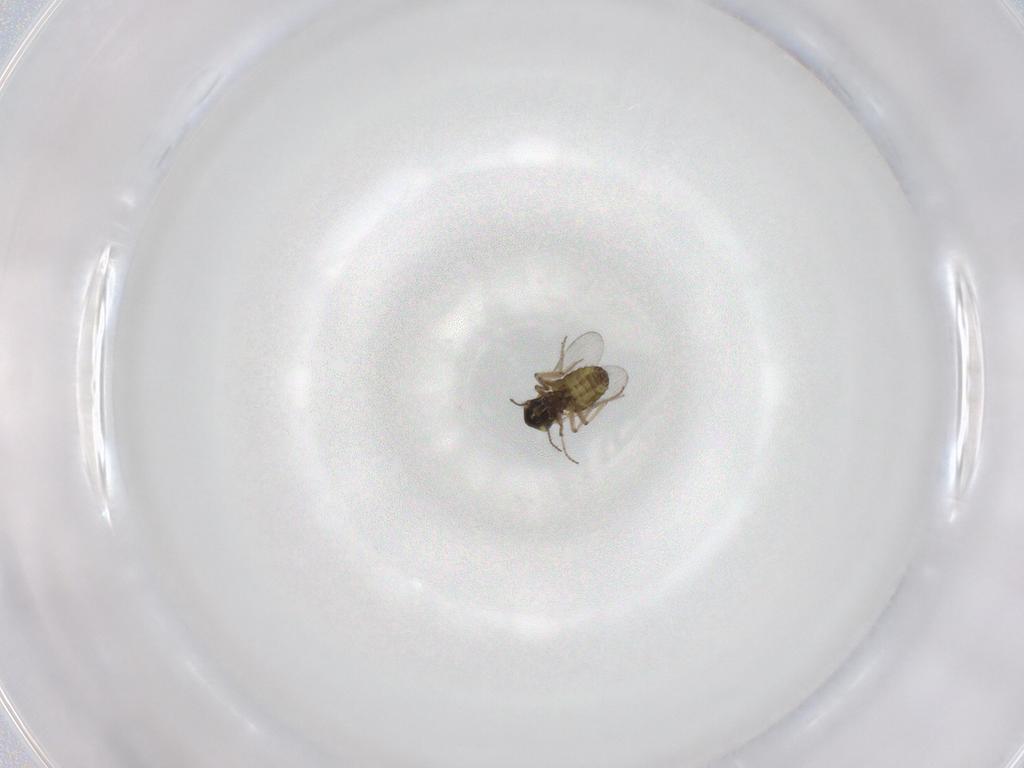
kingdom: Animalia
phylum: Arthropoda
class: Insecta
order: Diptera
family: Ceratopogonidae
